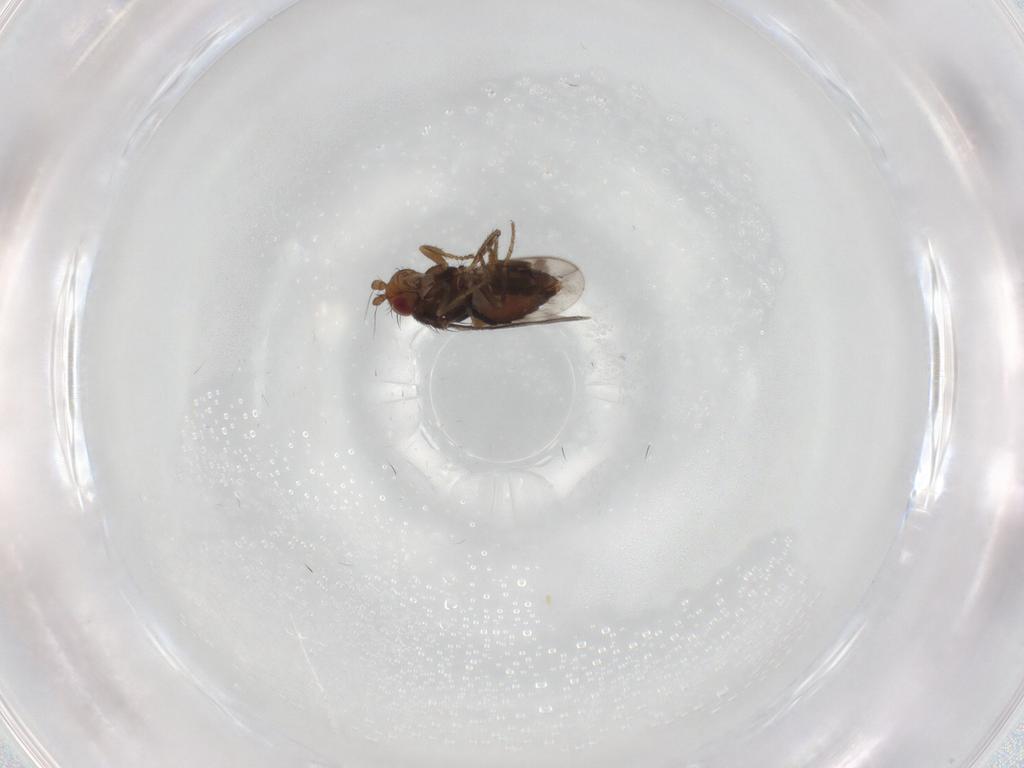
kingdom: Animalia
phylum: Arthropoda
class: Insecta
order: Diptera
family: Sphaeroceridae
